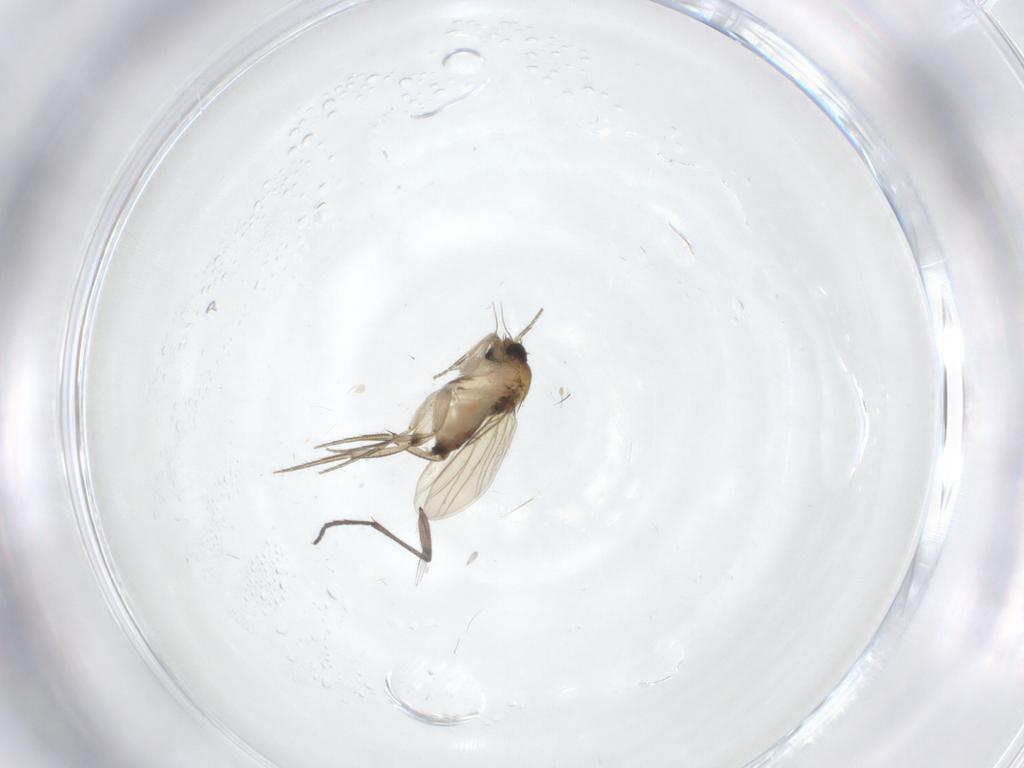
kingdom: Animalia
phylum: Arthropoda
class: Insecta
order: Diptera
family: Phoridae
